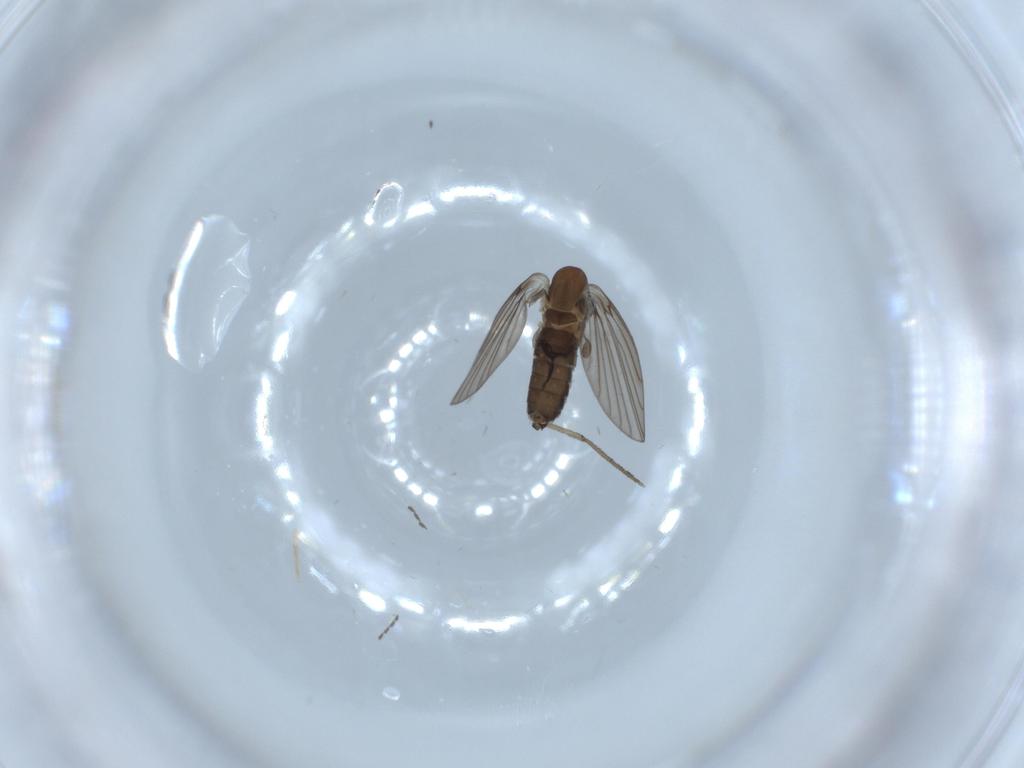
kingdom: Animalia
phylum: Arthropoda
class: Insecta
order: Diptera
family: Psychodidae
